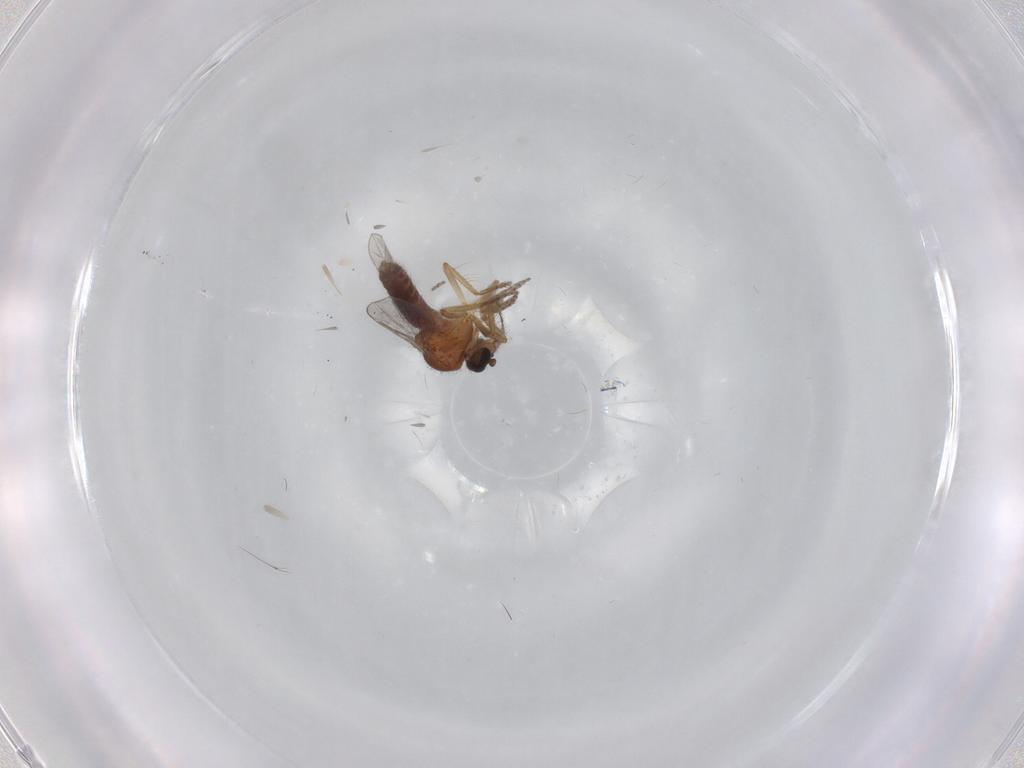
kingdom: Animalia
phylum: Arthropoda
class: Insecta
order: Diptera
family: Ceratopogonidae
